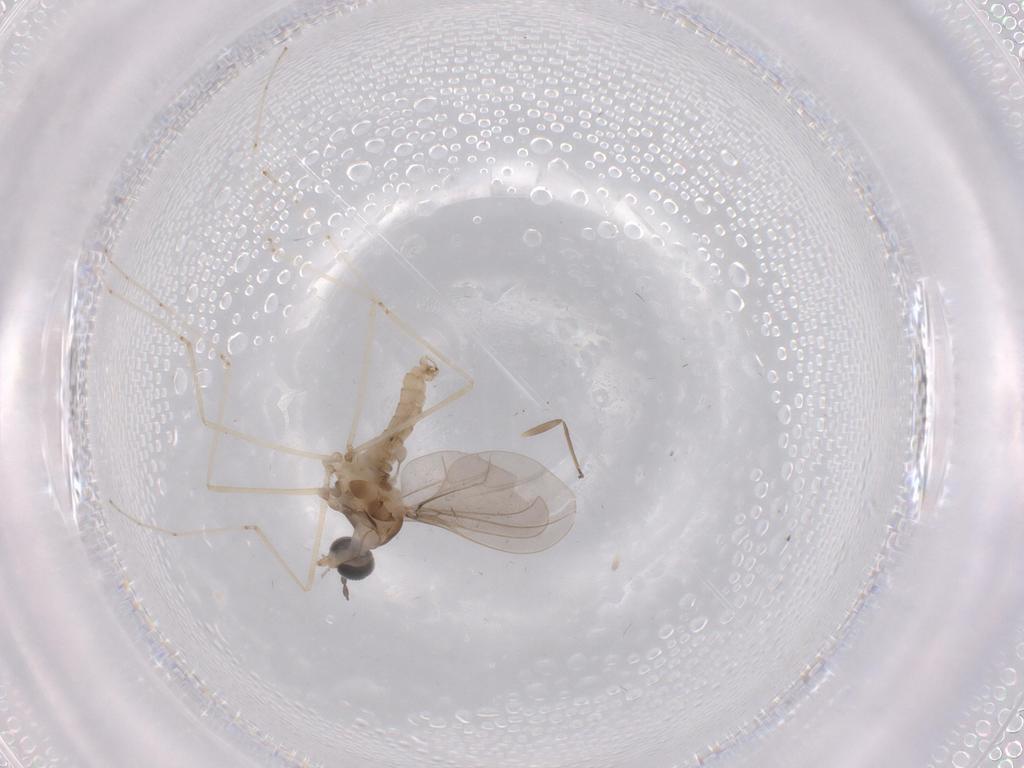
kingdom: Animalia
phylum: Arthropoda
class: Insecta
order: Diptera
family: Cecidomyiidae
